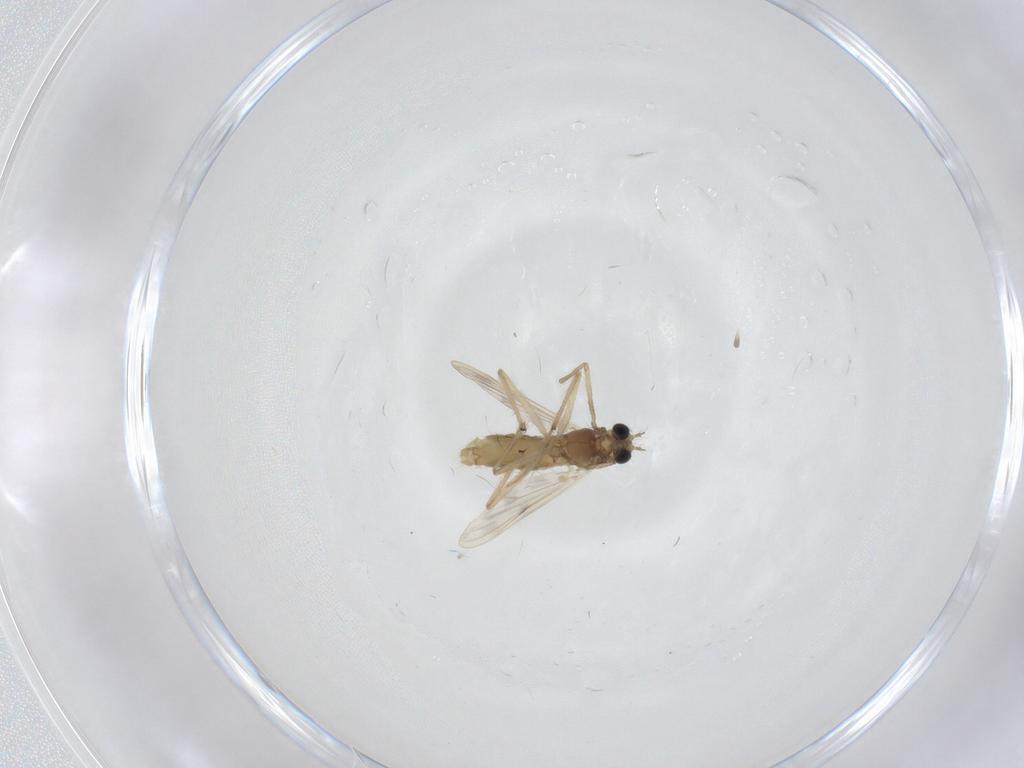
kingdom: Animalia
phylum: Arthropoda
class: Insecta
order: Diptera
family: Chironomidae
